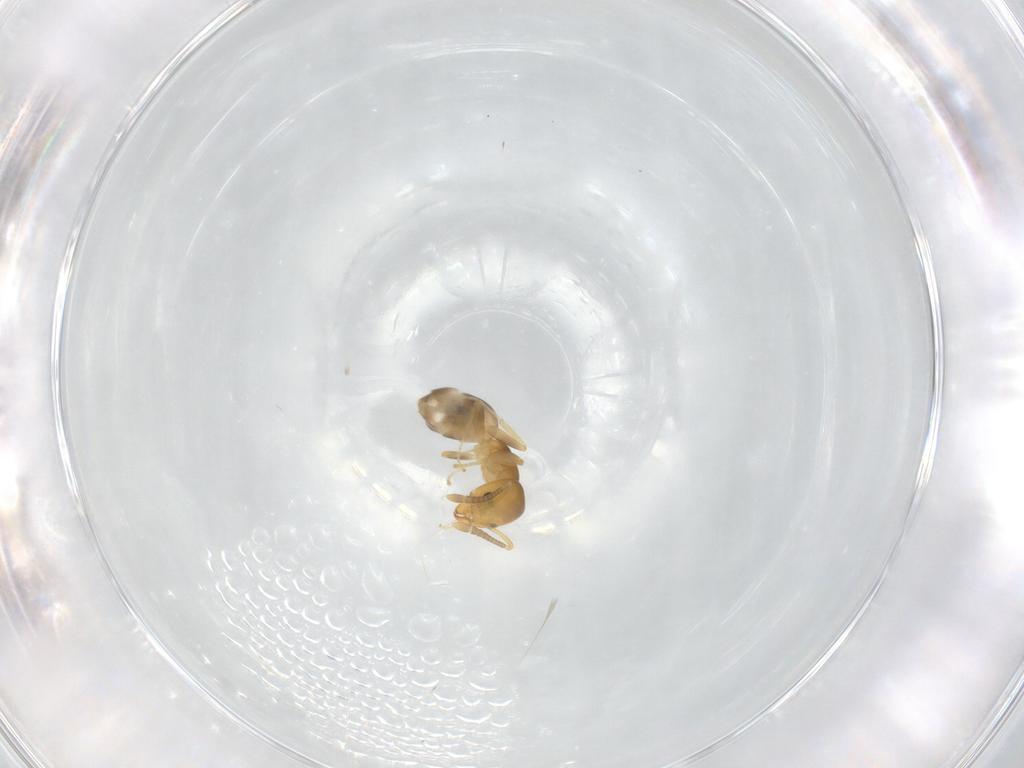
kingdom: Animalia
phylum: Arthropoda
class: Insecta
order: Hymenoptera
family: Formicidae
